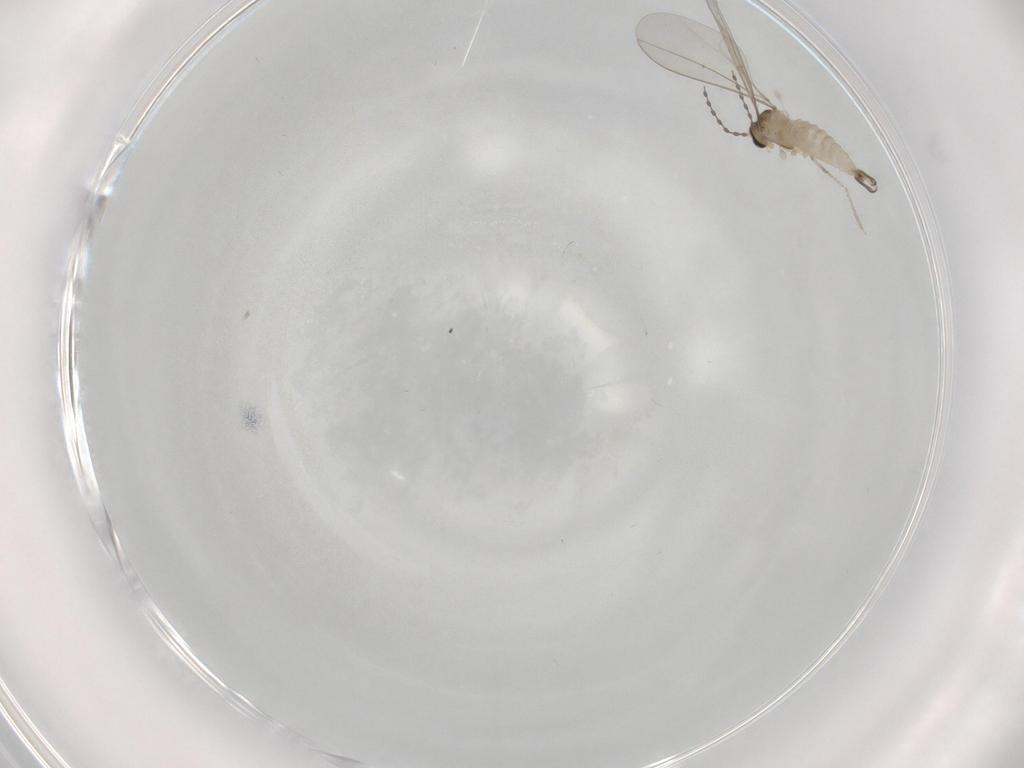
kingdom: Animalia
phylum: Arthropoda
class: Insecta
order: Diptera
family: Cecidomyiidae
